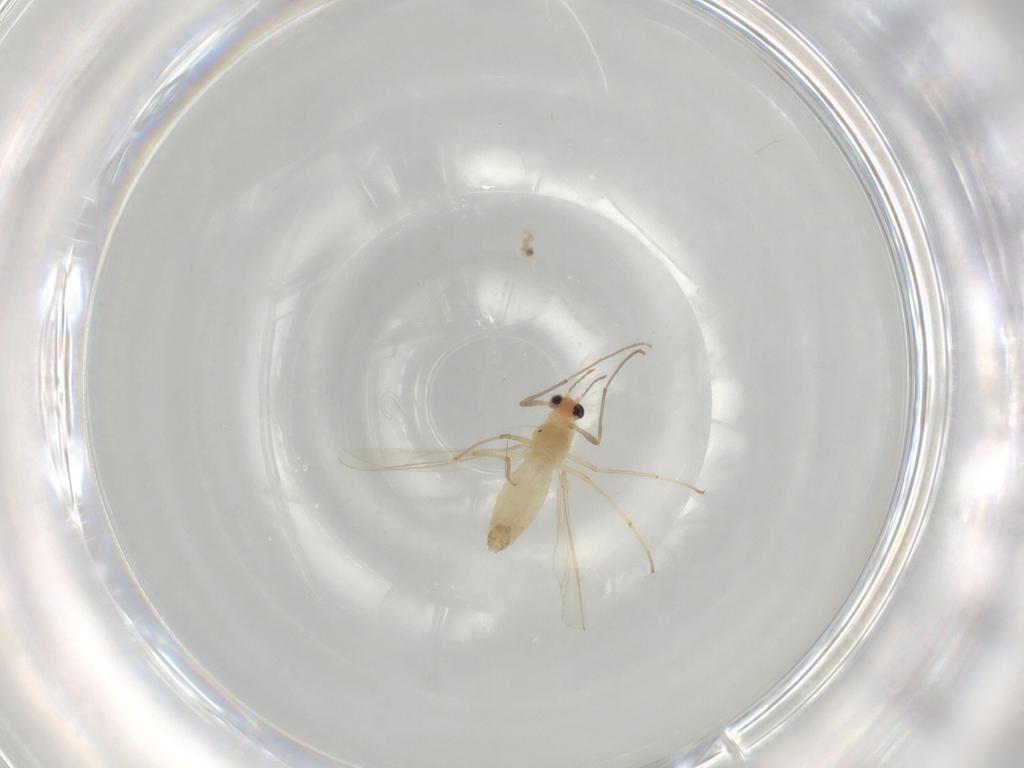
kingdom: Animalia
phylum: Arthropoda
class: Insecta
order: Diptera
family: Chironomidae
